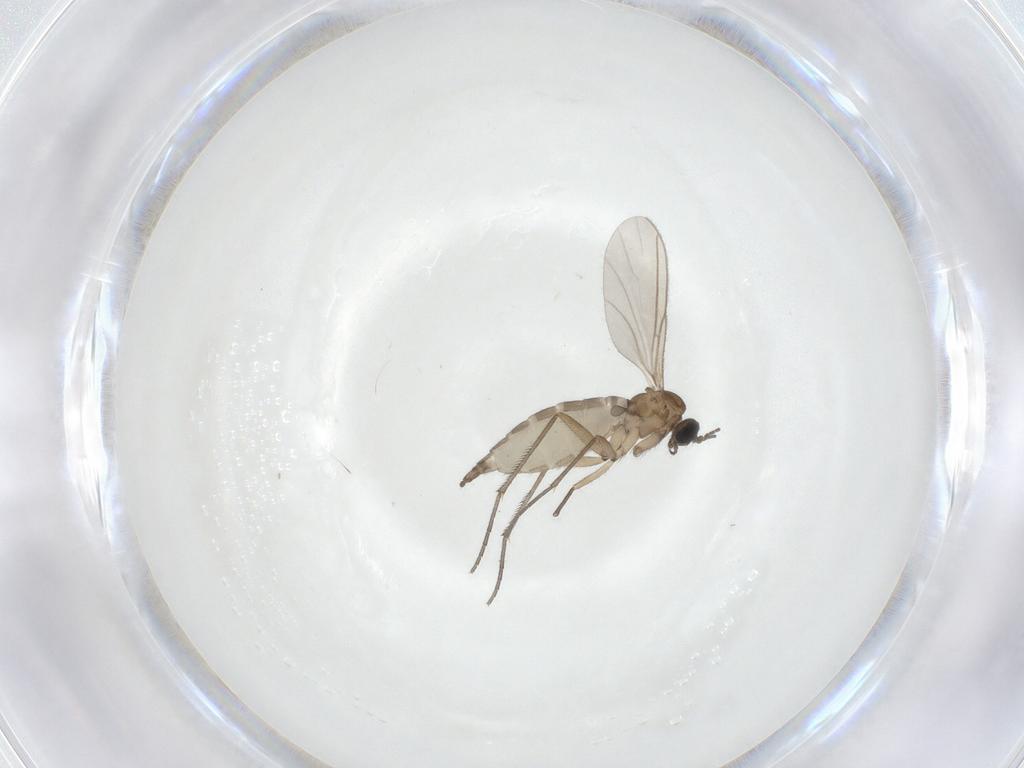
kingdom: Animalia
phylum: Arthropoda
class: Insecta
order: Diptera
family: Sciaridae
